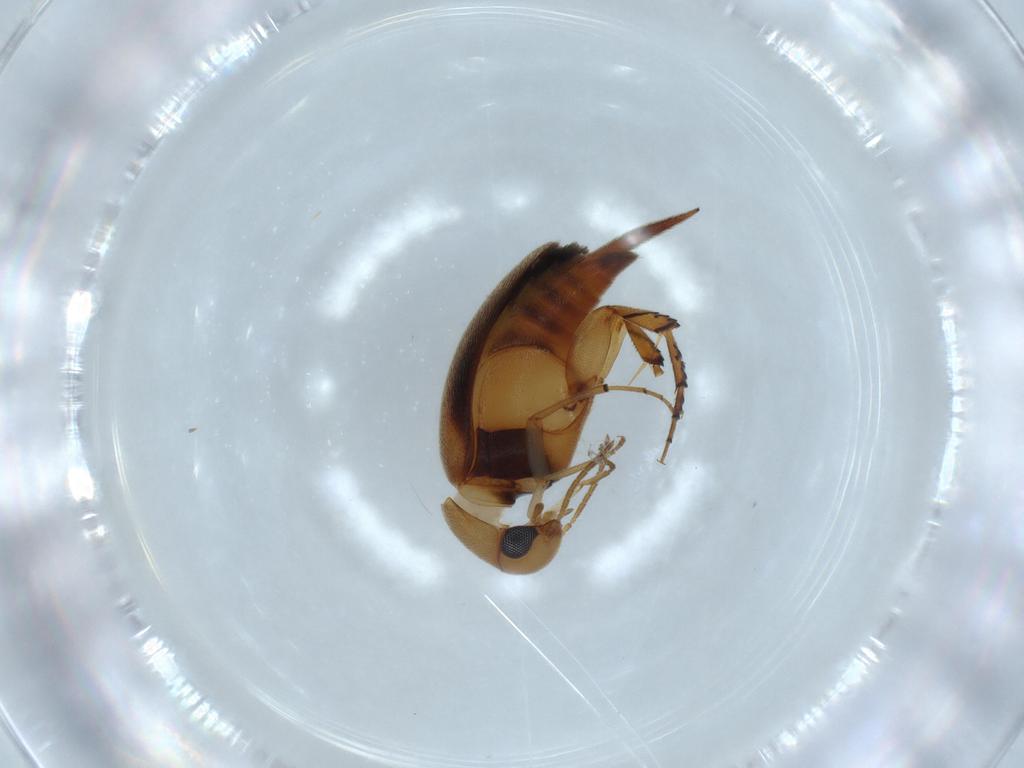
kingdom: Animalia
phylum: Arthropoda
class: Insecta
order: Coleoptera
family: Mordellidae
